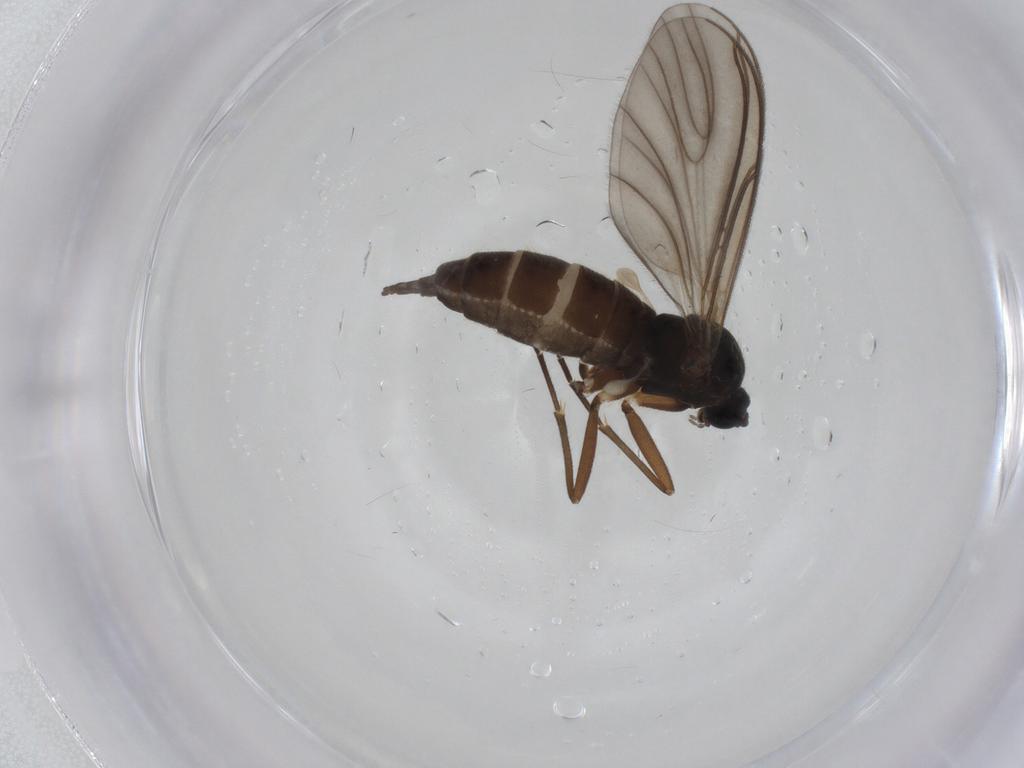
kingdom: Animalia
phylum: Arthropoda
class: Insecta
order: Diptera
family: Sciaridae
